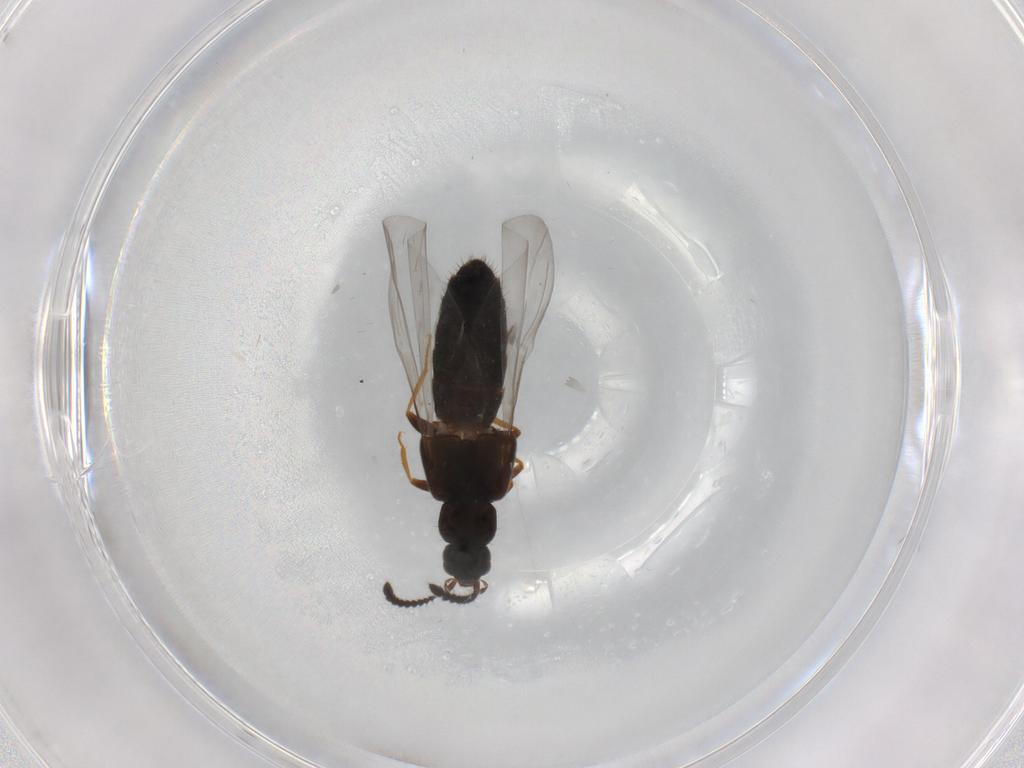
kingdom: Animalia
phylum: Arthropoda
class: Insecta
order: Coleoptera
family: Staphylinidae
